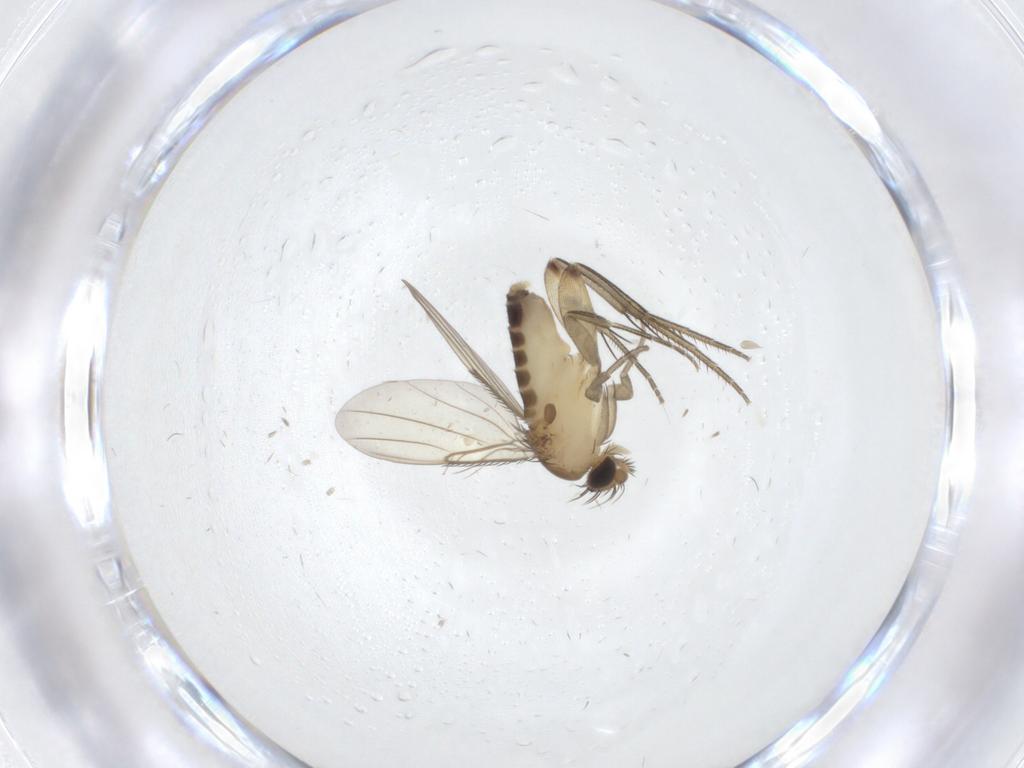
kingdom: Animalia
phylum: Arthropoda
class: Insecta
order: Diptera
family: Phoridae
